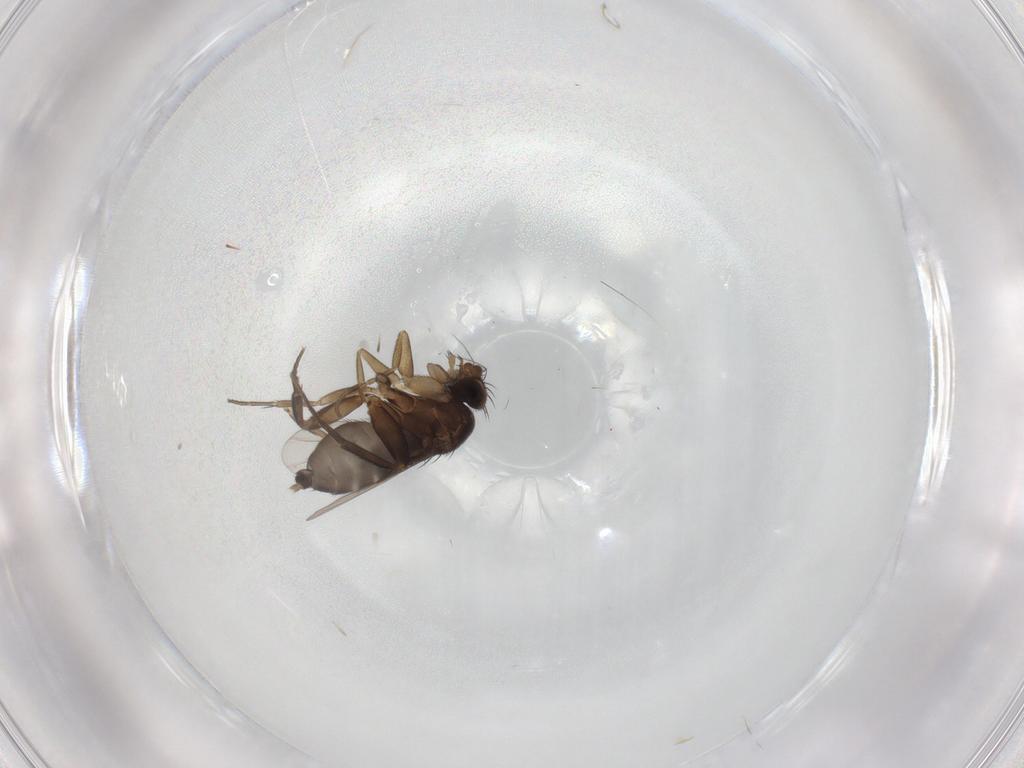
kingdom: Animalia
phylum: Arthropoda
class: Insecta
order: Diptera
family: Phoridae
